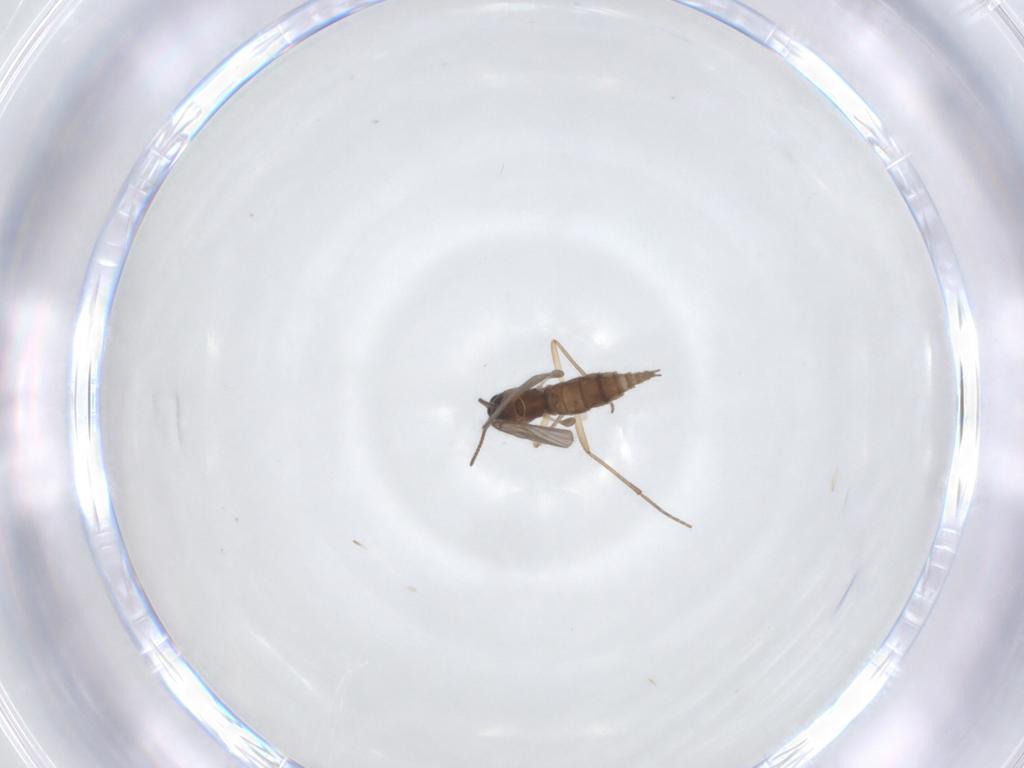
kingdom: Animalia
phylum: Arthropoda
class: Insecta
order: Diptera
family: Sciaridae
